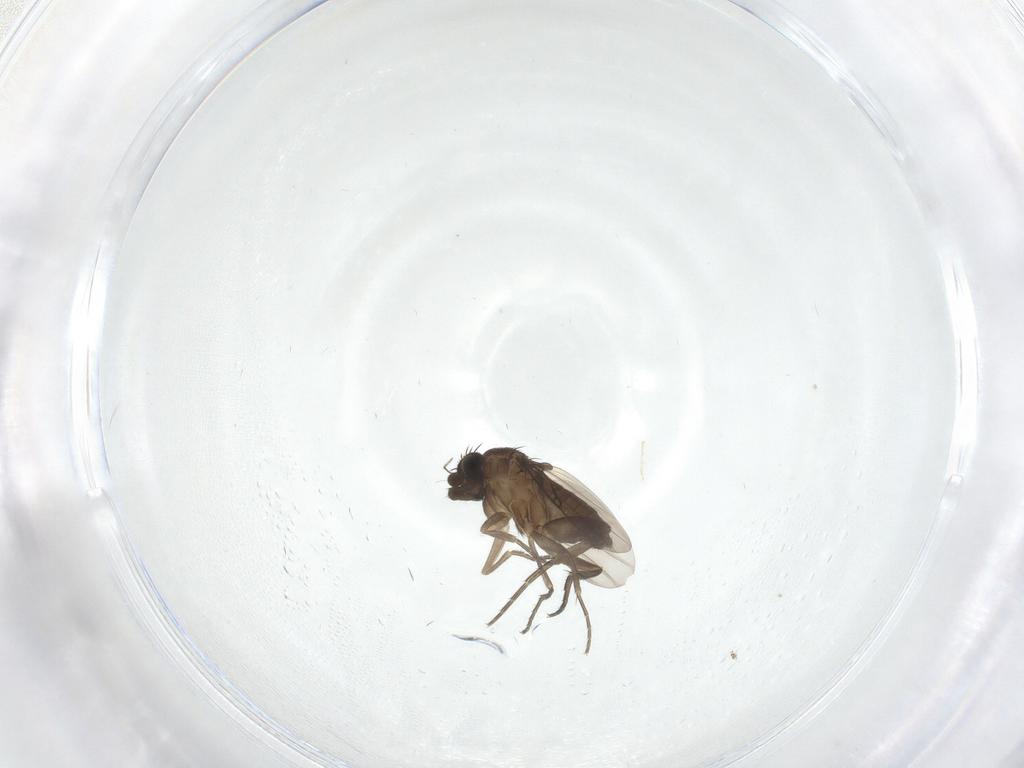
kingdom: Animalia
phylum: Arthropoda
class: Insecta
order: Diptera
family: Phoridae
